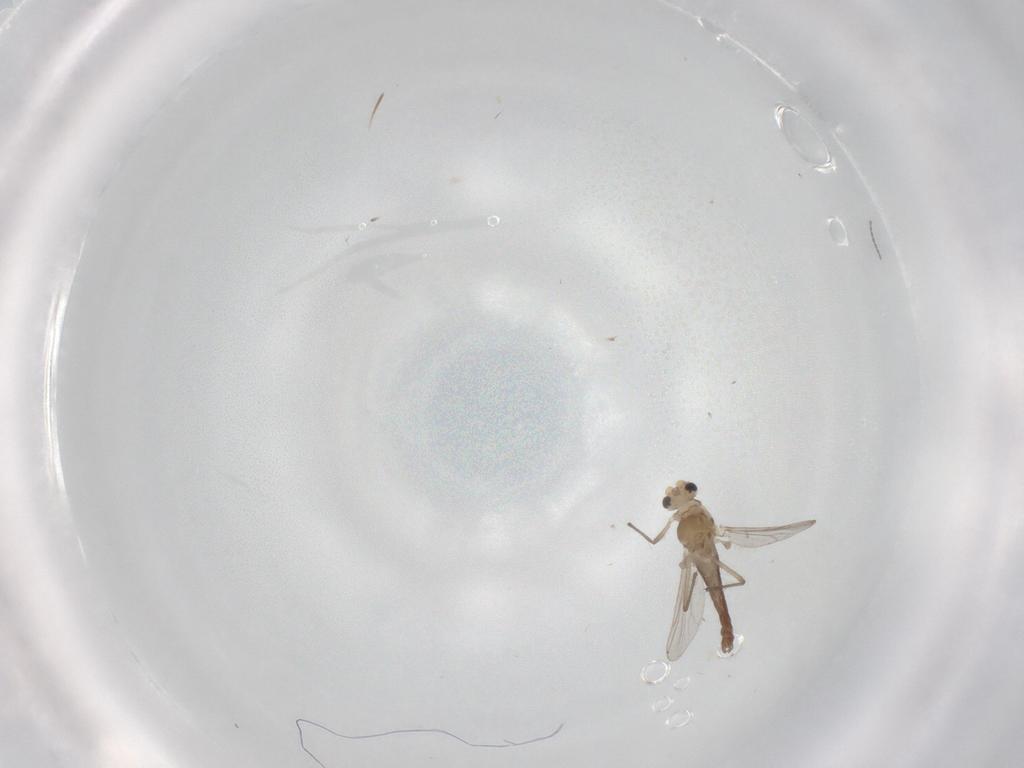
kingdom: Animalia
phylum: Arthropoda
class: Insecta
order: Diptera
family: Chironomidae
